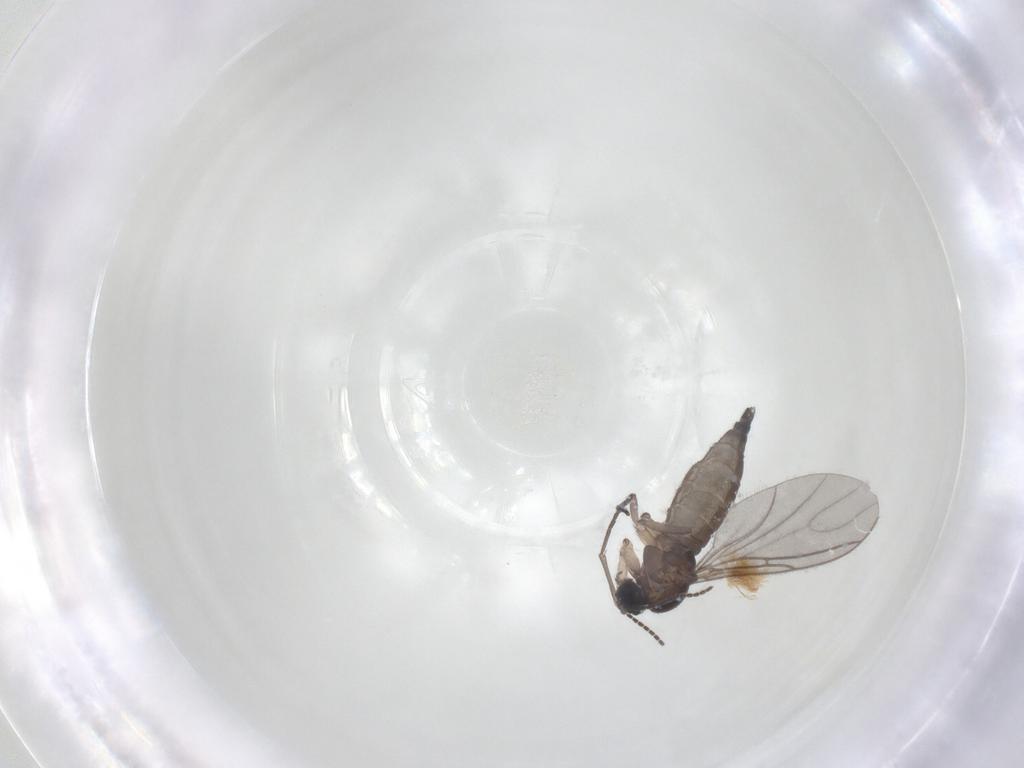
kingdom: Animalia
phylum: Arthropoda
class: Insecta
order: Diptera
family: Sciaridae
